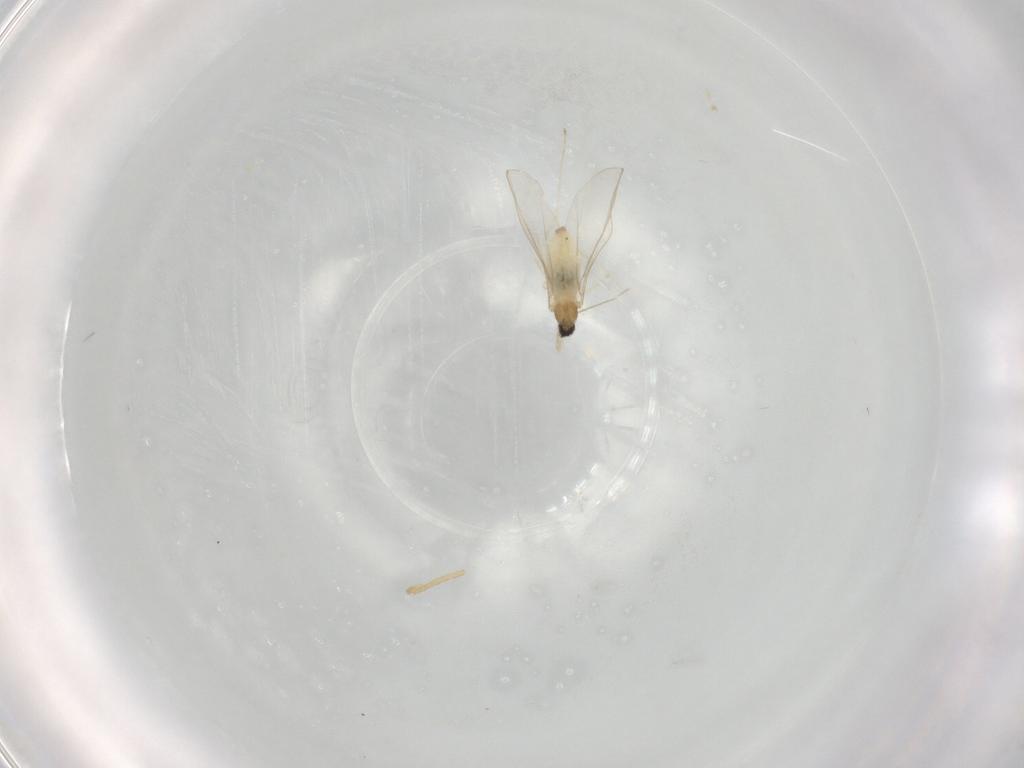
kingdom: Animalia
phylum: Arthropoda
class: Insecta
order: Diptera
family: Cecidomyiidae
